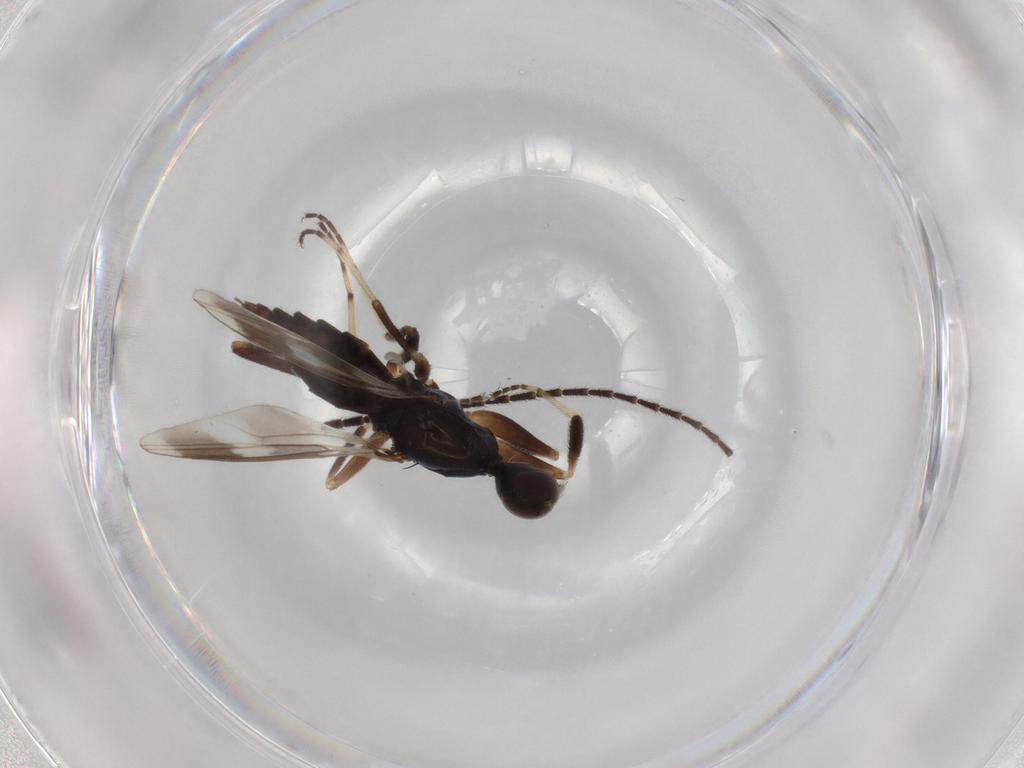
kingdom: Animalia
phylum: Arthropoda
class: Insecta
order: Diptera
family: Hybotidae
